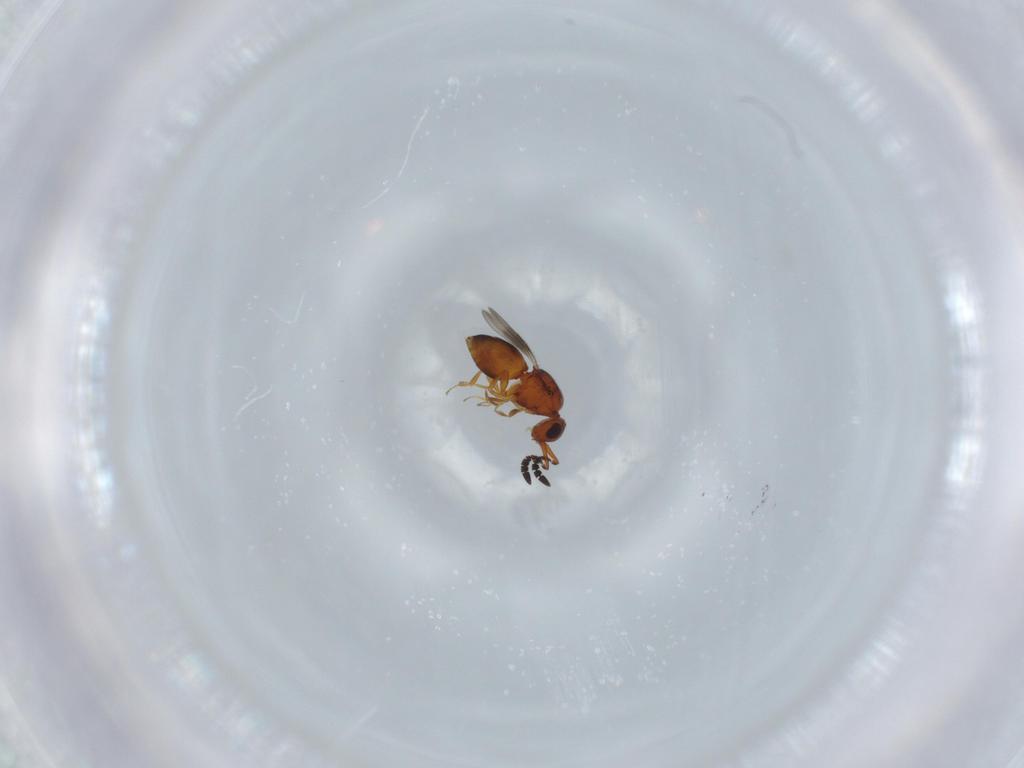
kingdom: Animalia
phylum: Arthropoda
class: Insecta
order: Hymenoptera
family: Ceraphronidae
